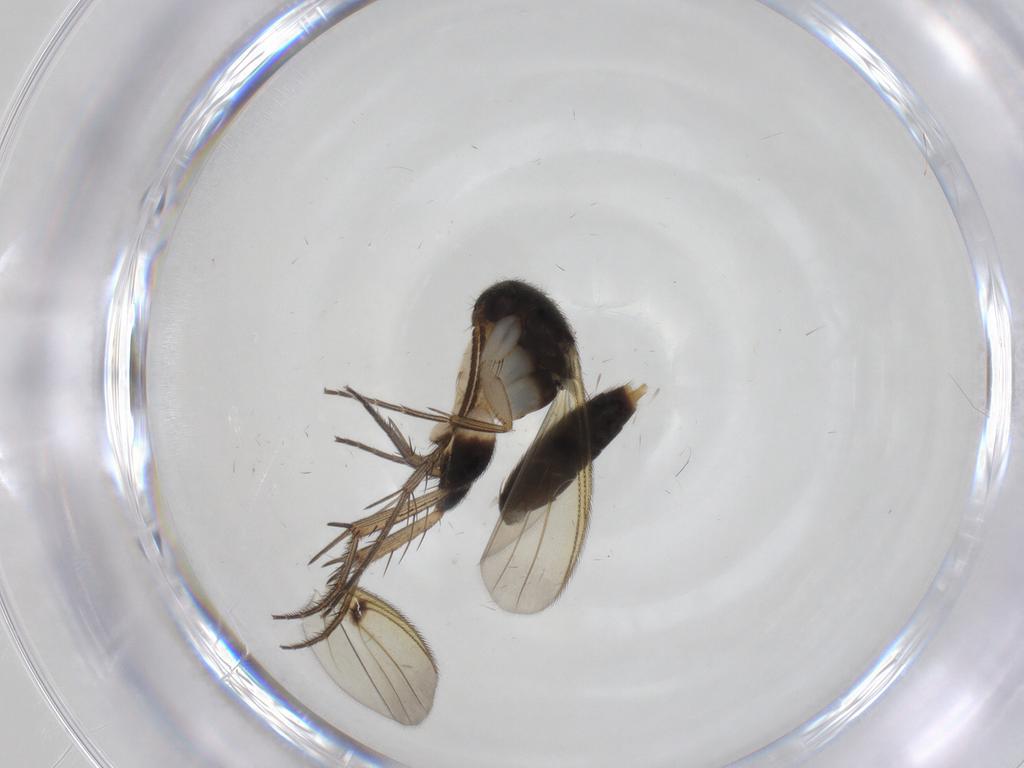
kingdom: Animalia
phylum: Arthropoda
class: Insecta
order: Diptera
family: Mycetophilidae
